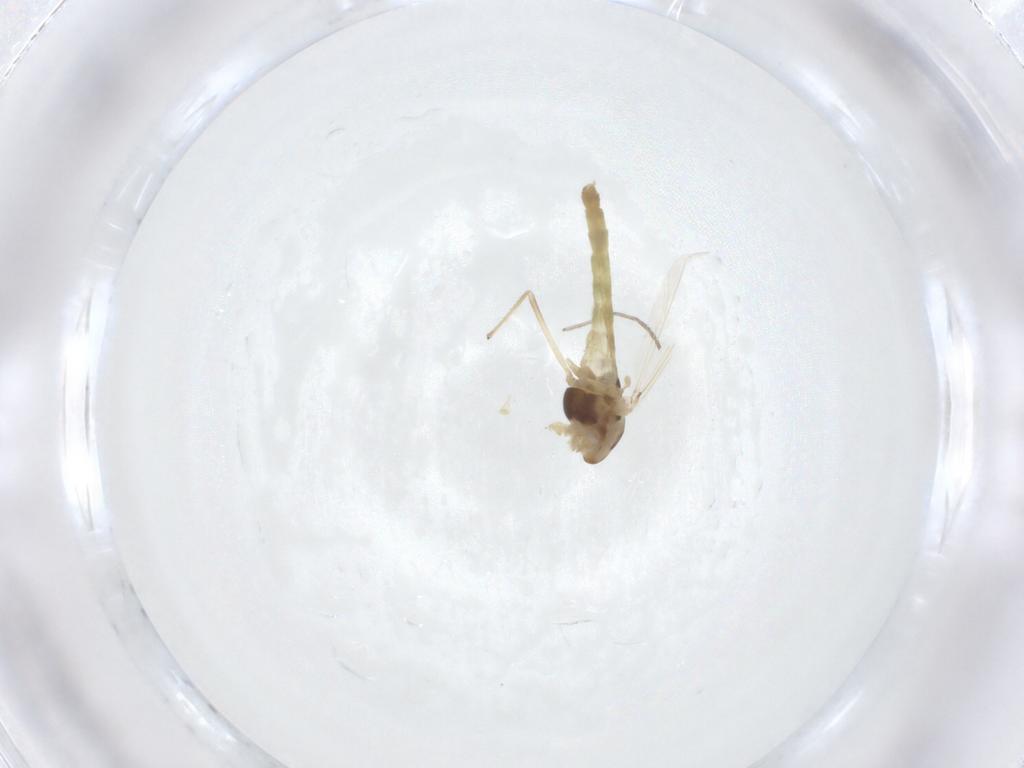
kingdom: Animalia
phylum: Arthropoda
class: Insecta
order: Diptera
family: Chironomidae
